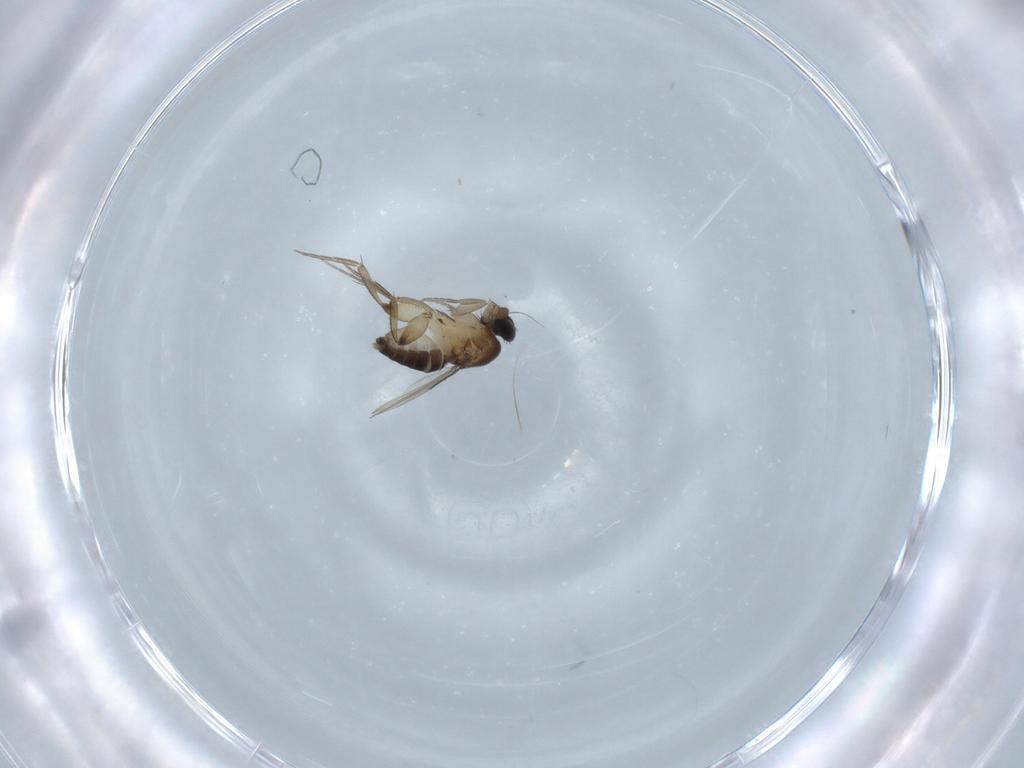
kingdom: Animalia
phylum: Arthropoda
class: Insecta
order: Diptera
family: Phoridae
